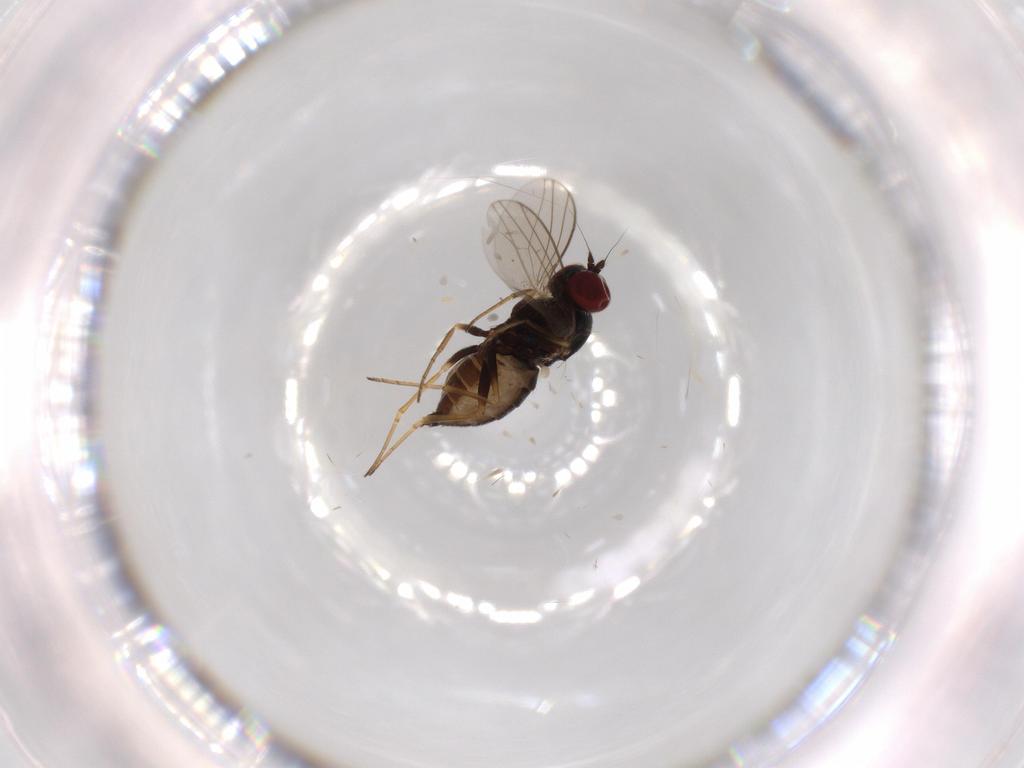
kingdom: Animalia
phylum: Arthropoda
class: Insecta
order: Diptera
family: Dolichopodidae
